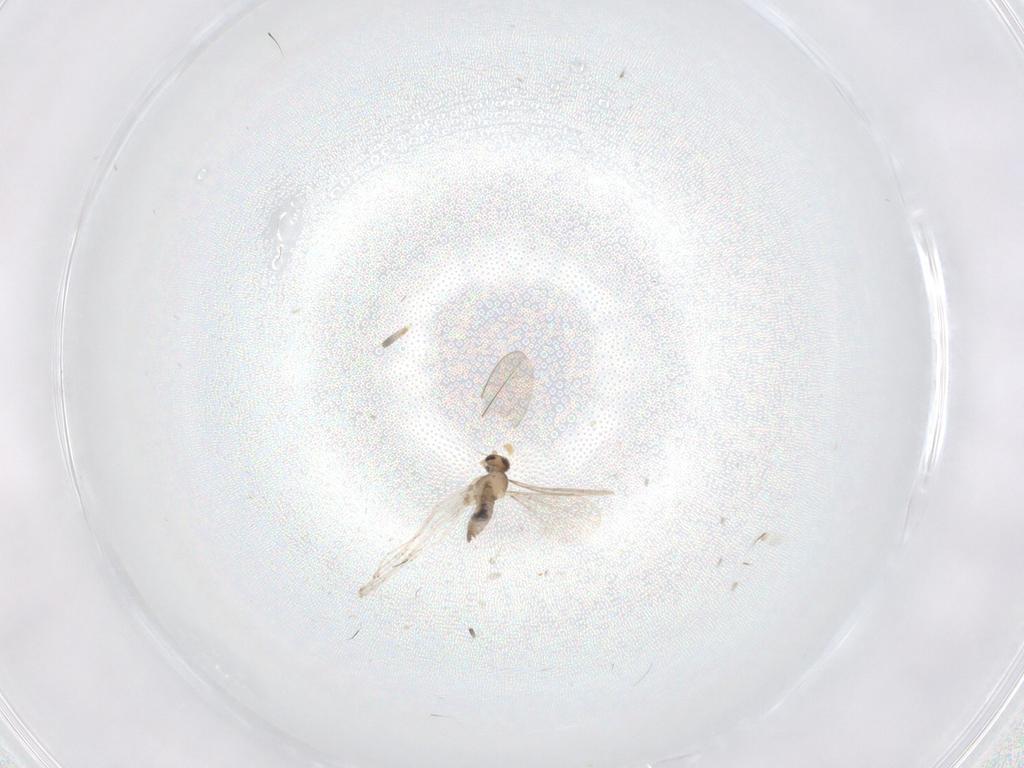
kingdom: Animalia
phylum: Arthropoda
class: Insecta
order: Diptera
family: Cecidomyiidae
